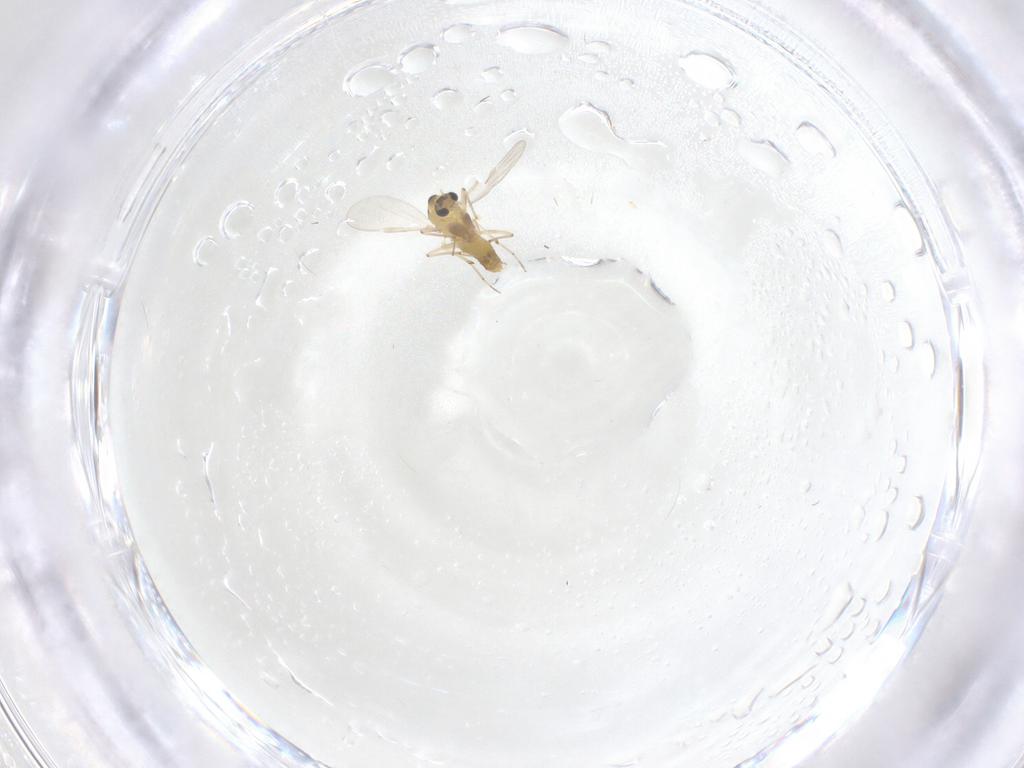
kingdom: Animalia
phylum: Arthropoda
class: Insecta
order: Diptera
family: Chironomidae
